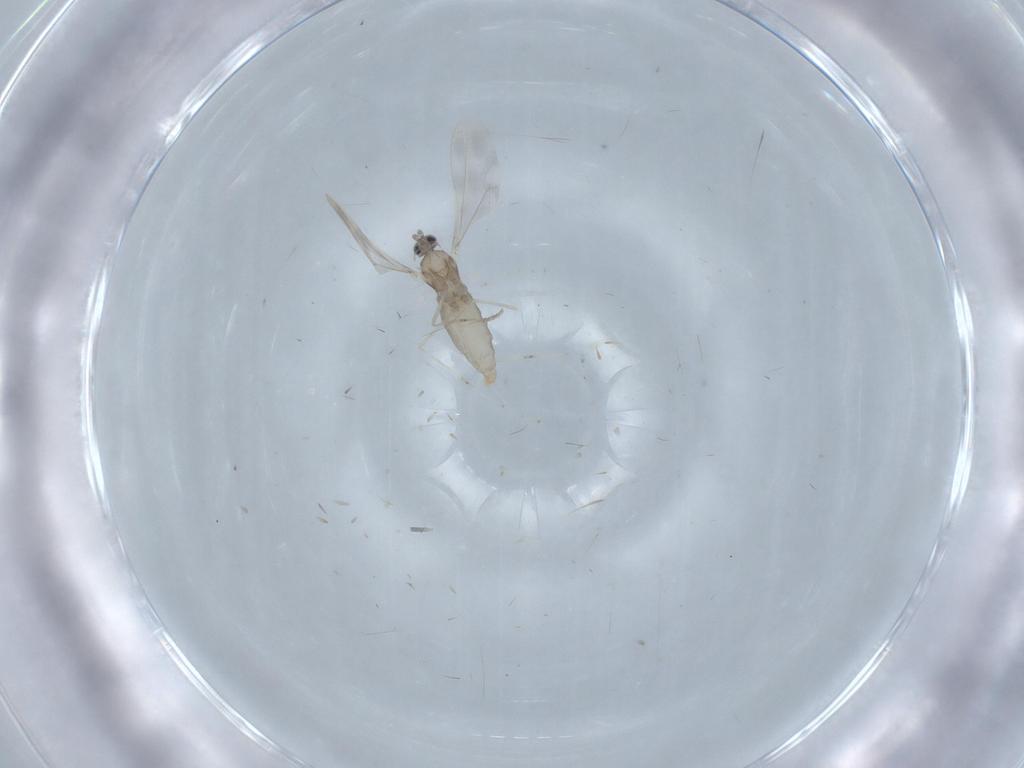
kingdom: Animalia
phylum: Arthropoda
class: Insecta
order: Diptera
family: Cecidomyiidae
